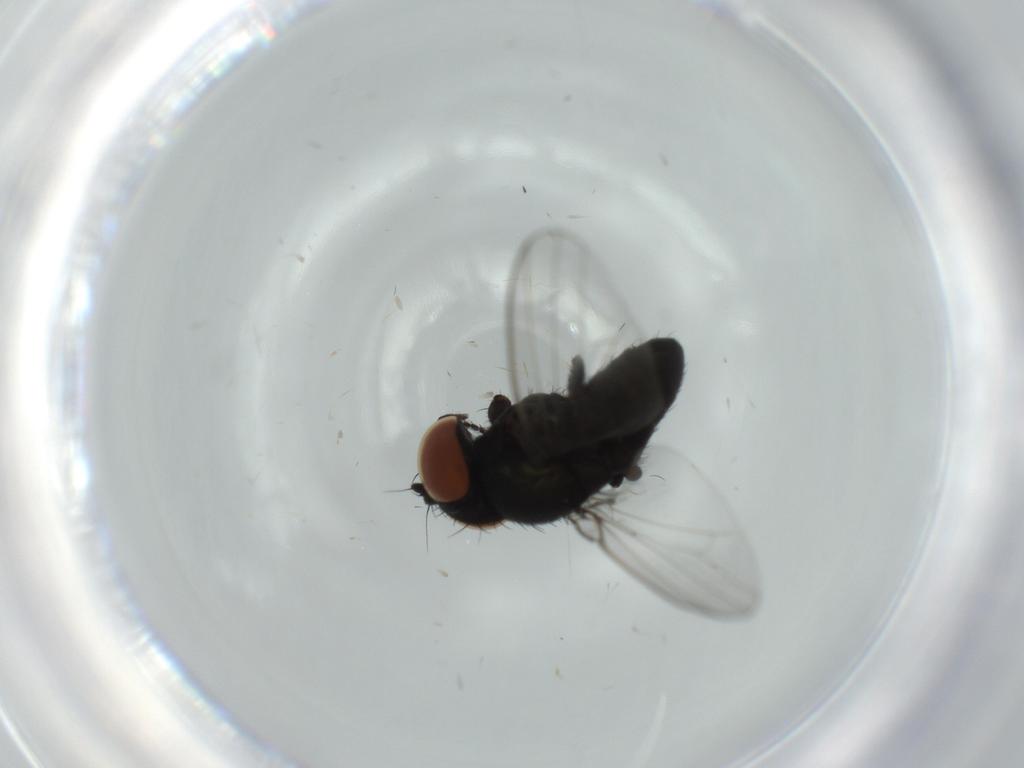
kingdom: Animalia
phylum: Arthropoda
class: Insecta
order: Diptera
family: Milichiidae
